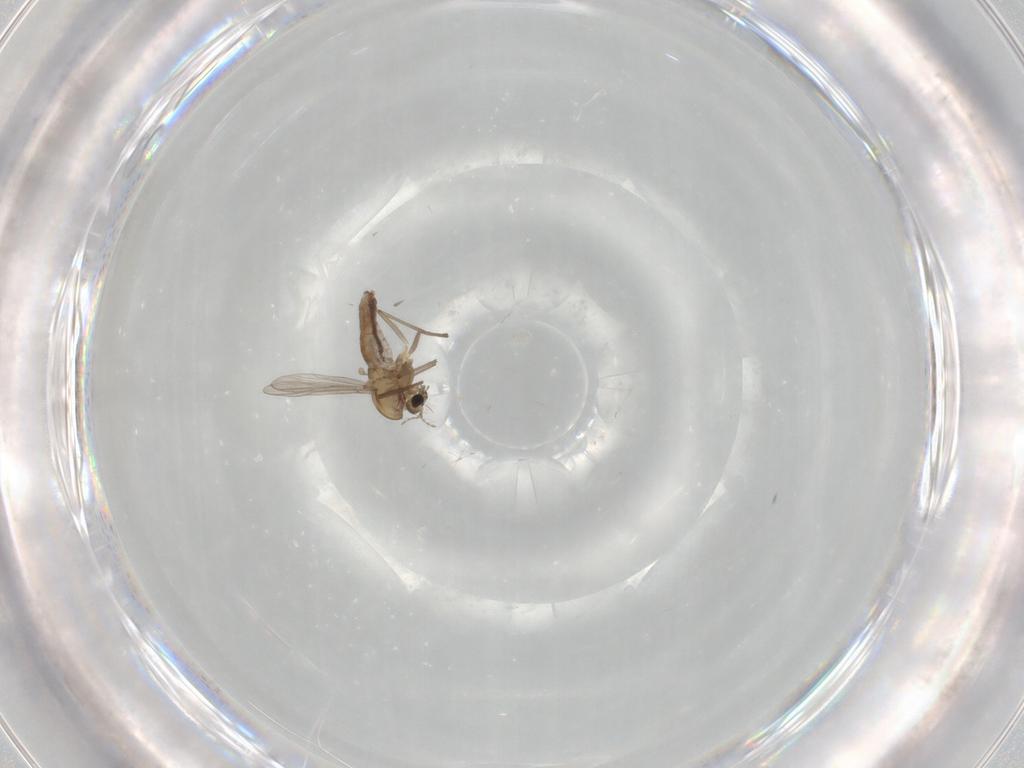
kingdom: Animalia
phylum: Arthropoda
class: Insecta
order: Diptera
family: Chironomidae
